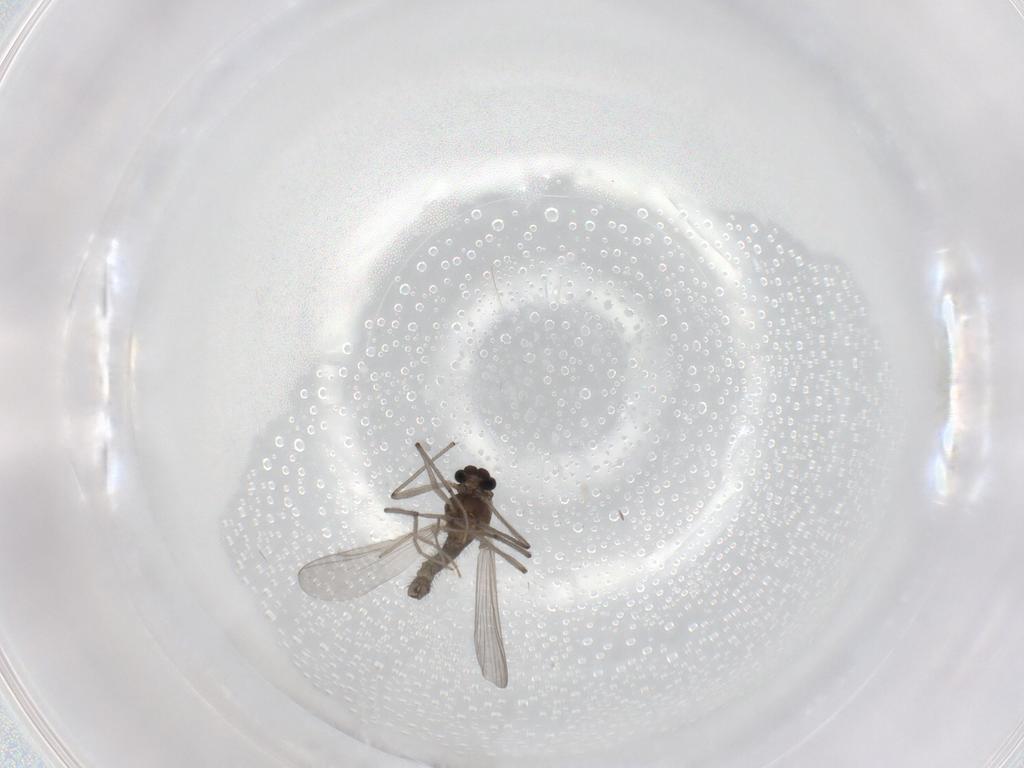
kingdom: Animalia
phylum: Arthropoda
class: Insecta
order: Diptera
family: Chironomidae
